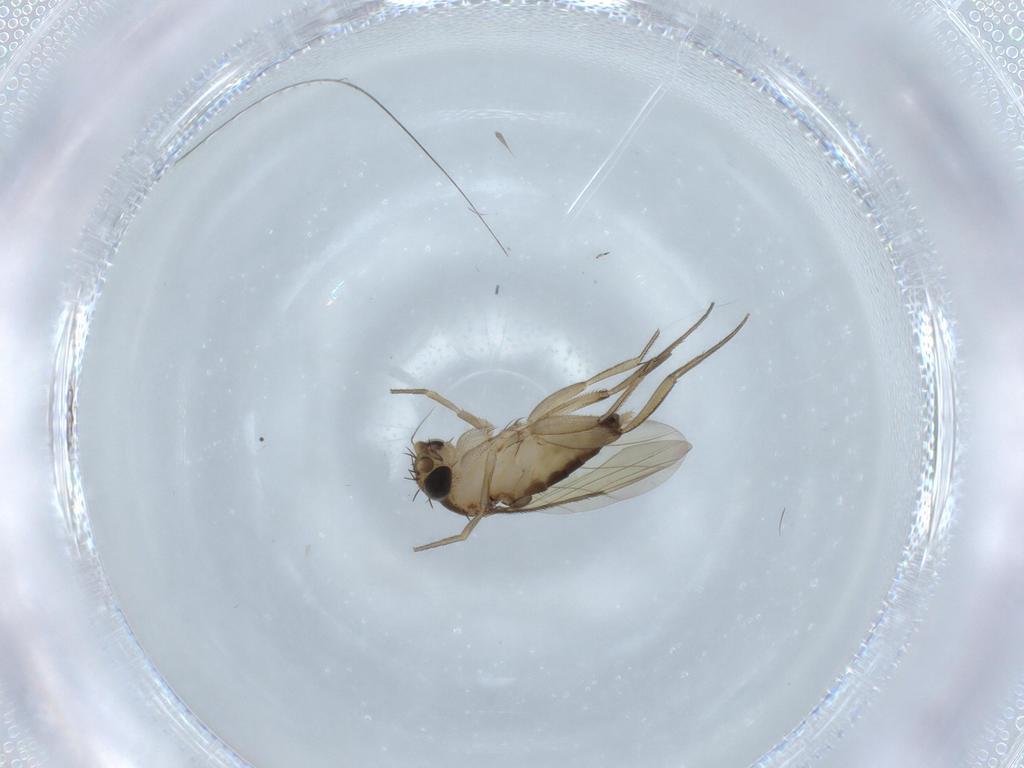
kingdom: Animalia
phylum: Arthropoda
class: Insecta
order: Diptera
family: Phoridae
